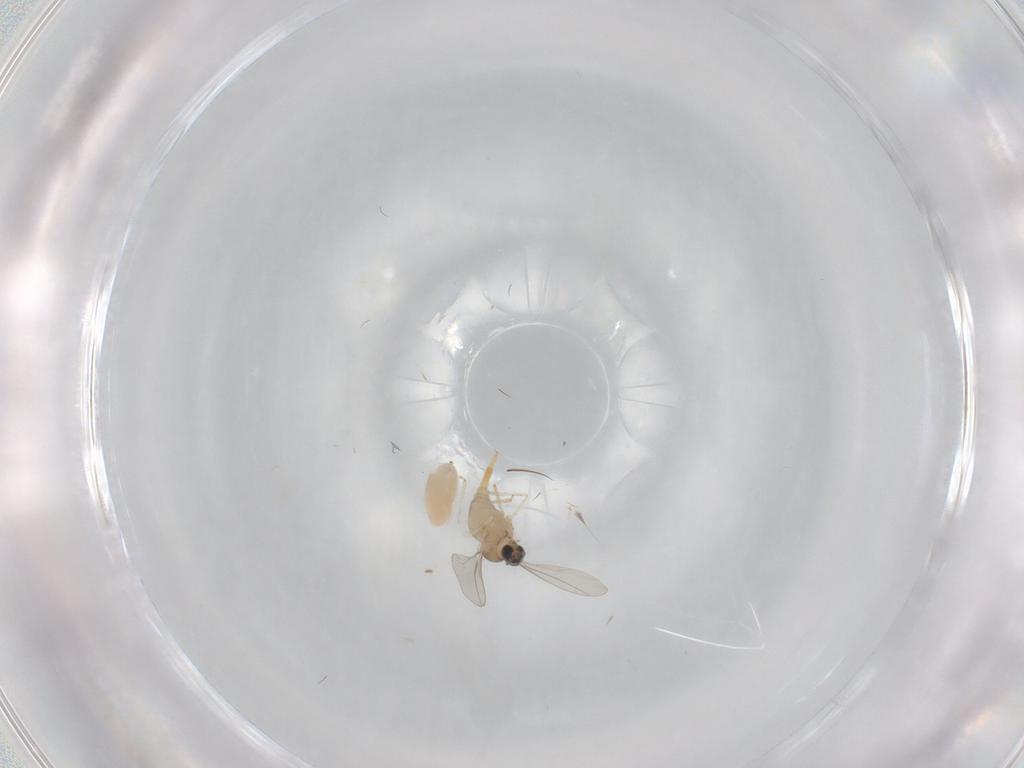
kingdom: Animalia
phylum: Arthropoda
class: Insecta
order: Diptera
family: Cecidomyiidae
